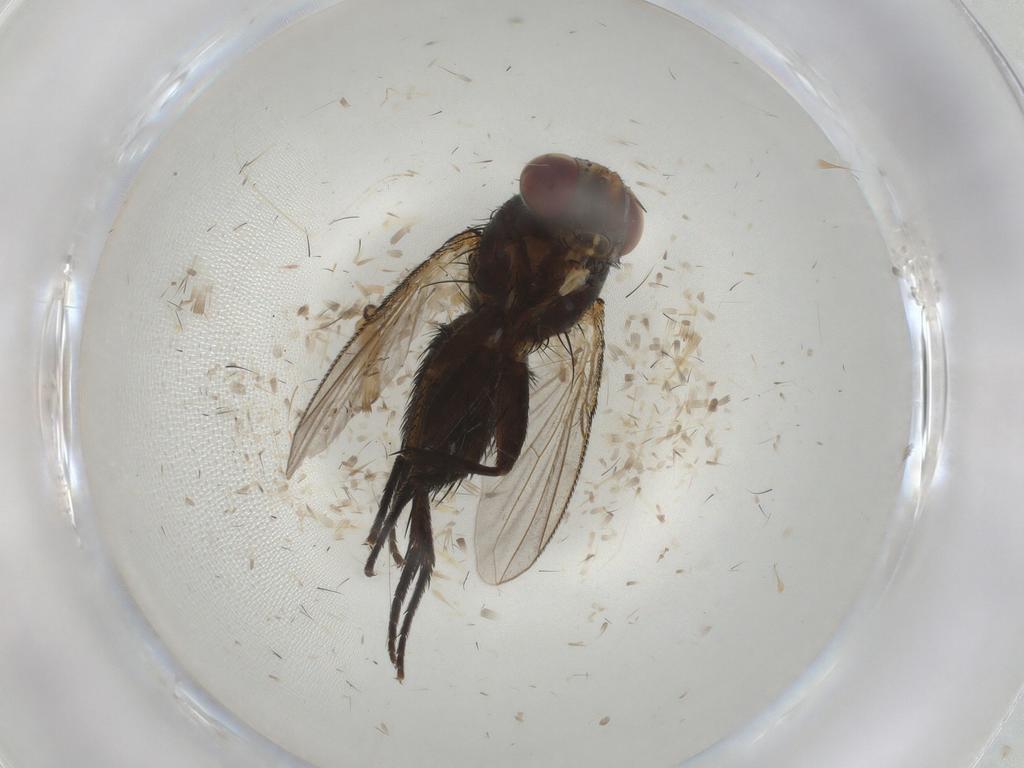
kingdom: Animalia
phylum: Arthropoda
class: Insecta
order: Diptera
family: Tachinidae
